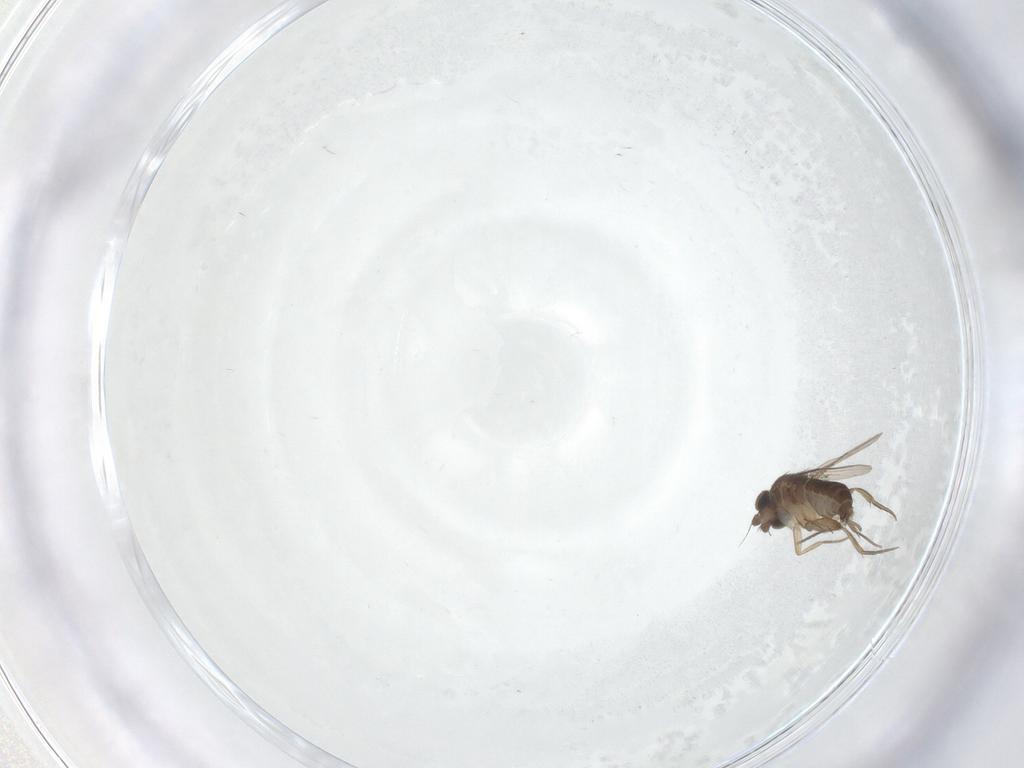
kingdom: Animalia
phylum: Arthropoda
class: Insecta
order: Diptera
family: Phoridae
